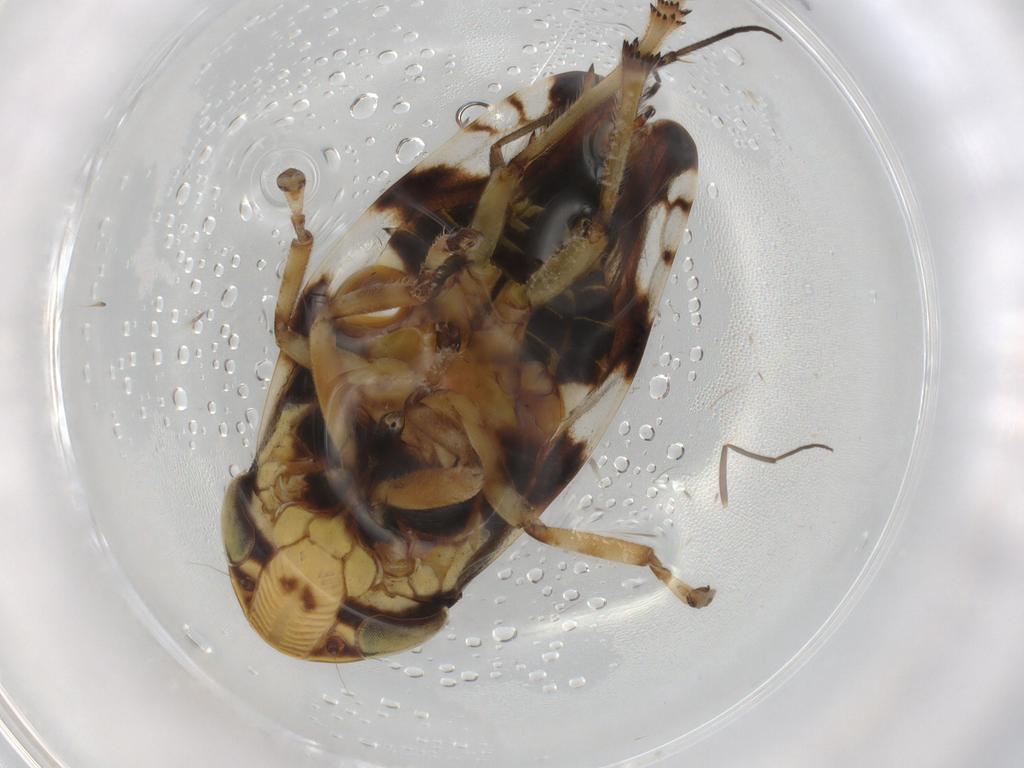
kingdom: Animalia
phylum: Arthropoda
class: Insecta
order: Hemiptera
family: Aphrophoridae
